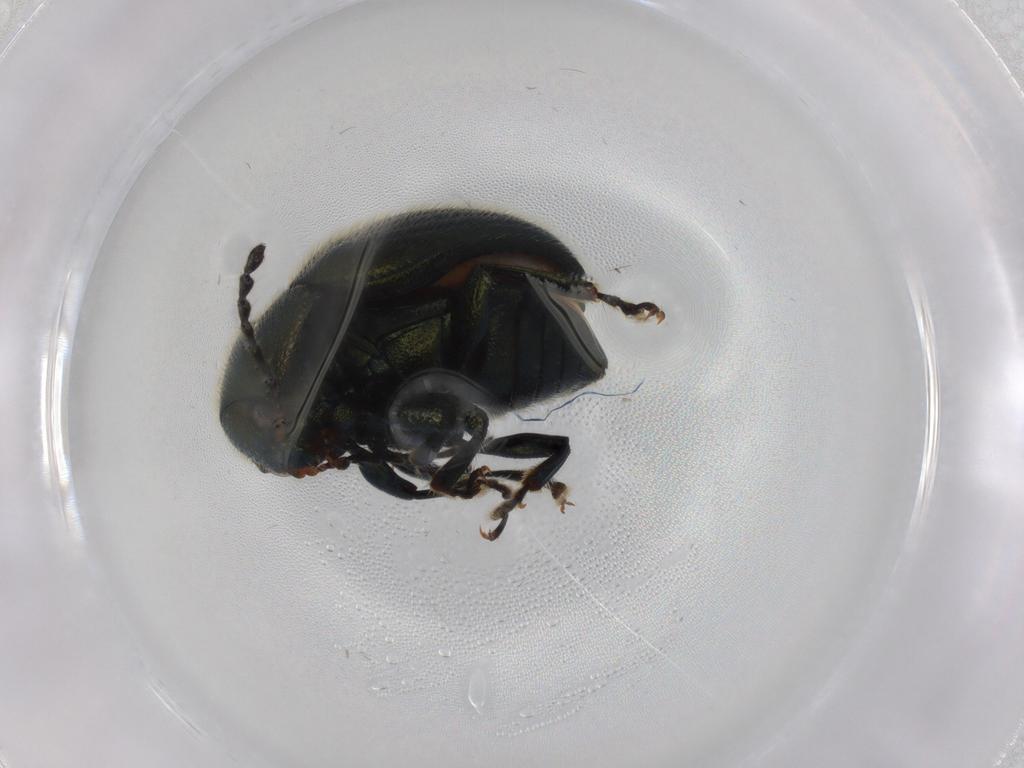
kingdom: Animalia
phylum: Arthropoda
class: Insecta
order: Coleoptera
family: Chrysomelidae
